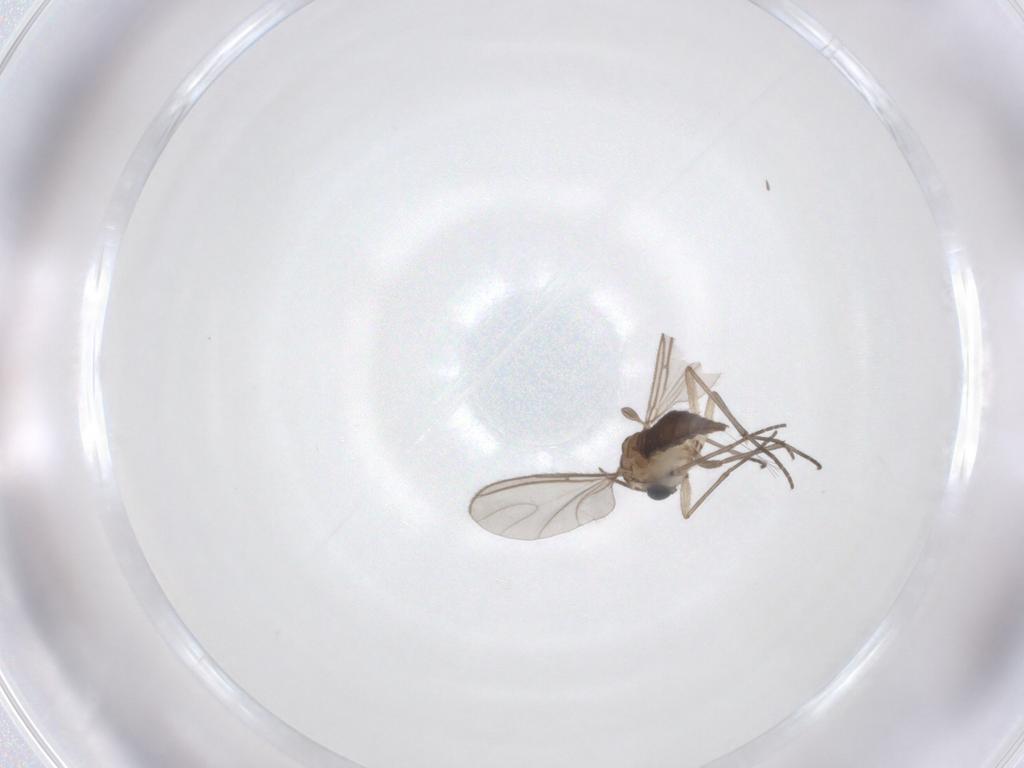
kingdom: Animalia
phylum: Arthropoda
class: Insecta
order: Diptera
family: Sciaridae
